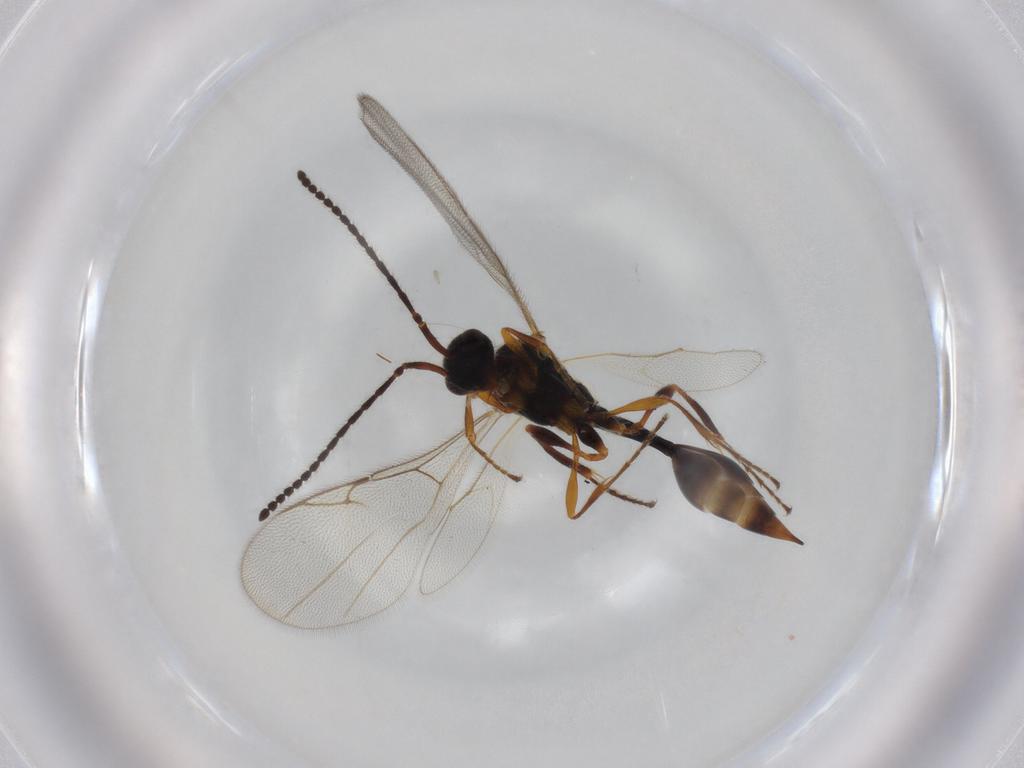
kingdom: Animalia
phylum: Arthropoda
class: Insecta
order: Hymenoptera
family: Diapriidae
